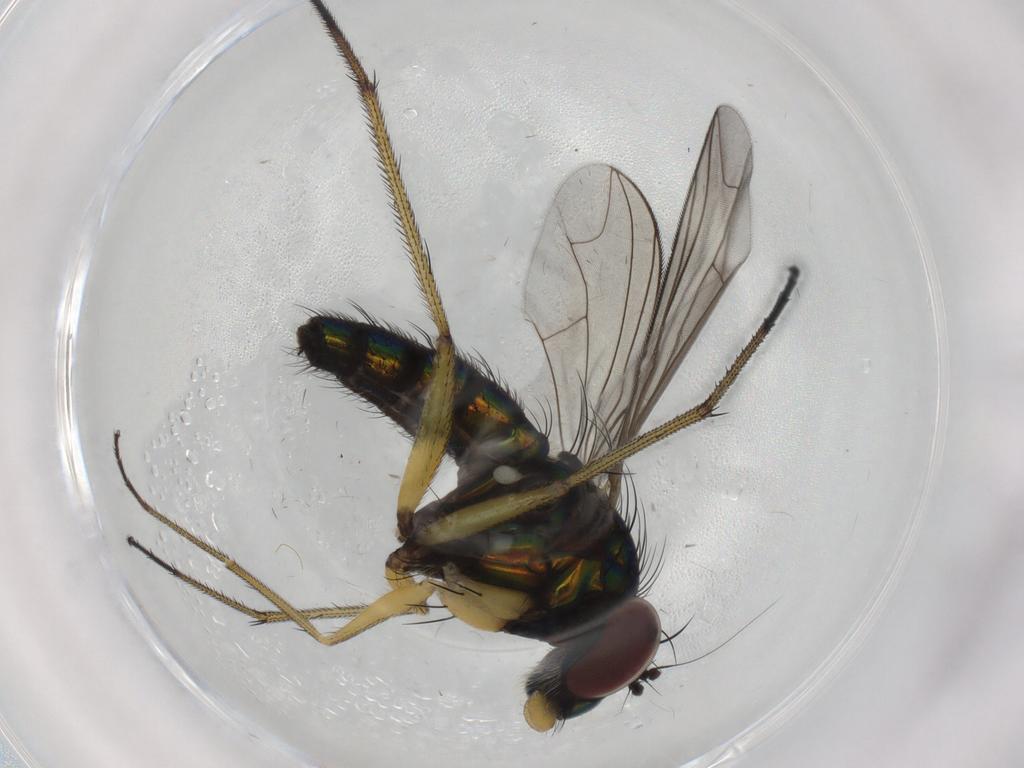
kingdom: Animalia
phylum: Arthropoda
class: Insecta
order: Diptera
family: Dolichopodidae
